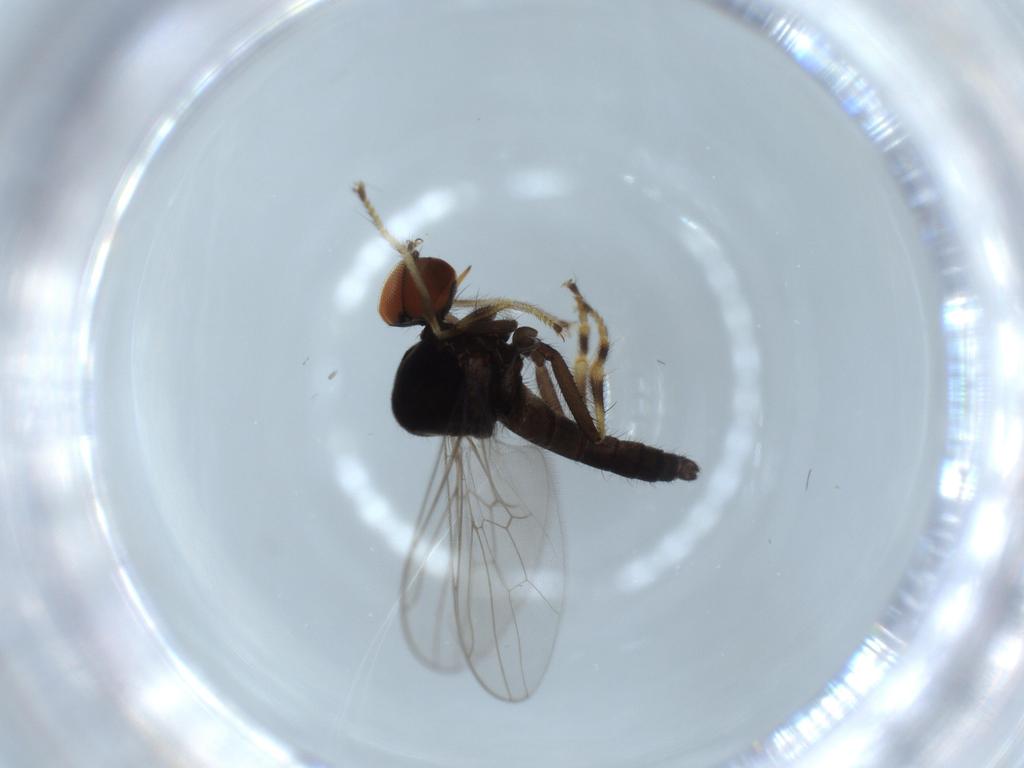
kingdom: Animalia
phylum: Arthropoda
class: Insecta
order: Diptera
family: Hybotidae
